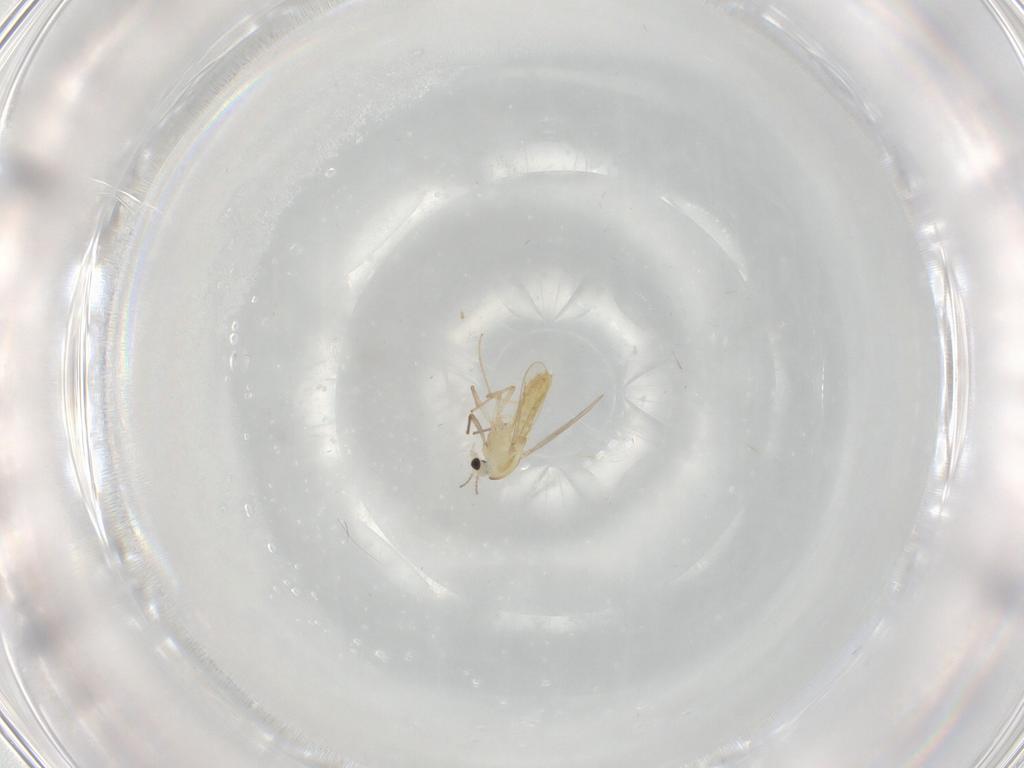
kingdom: Animalia
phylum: Arthropoda
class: Insecta
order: Diptera
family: Chironomidae
